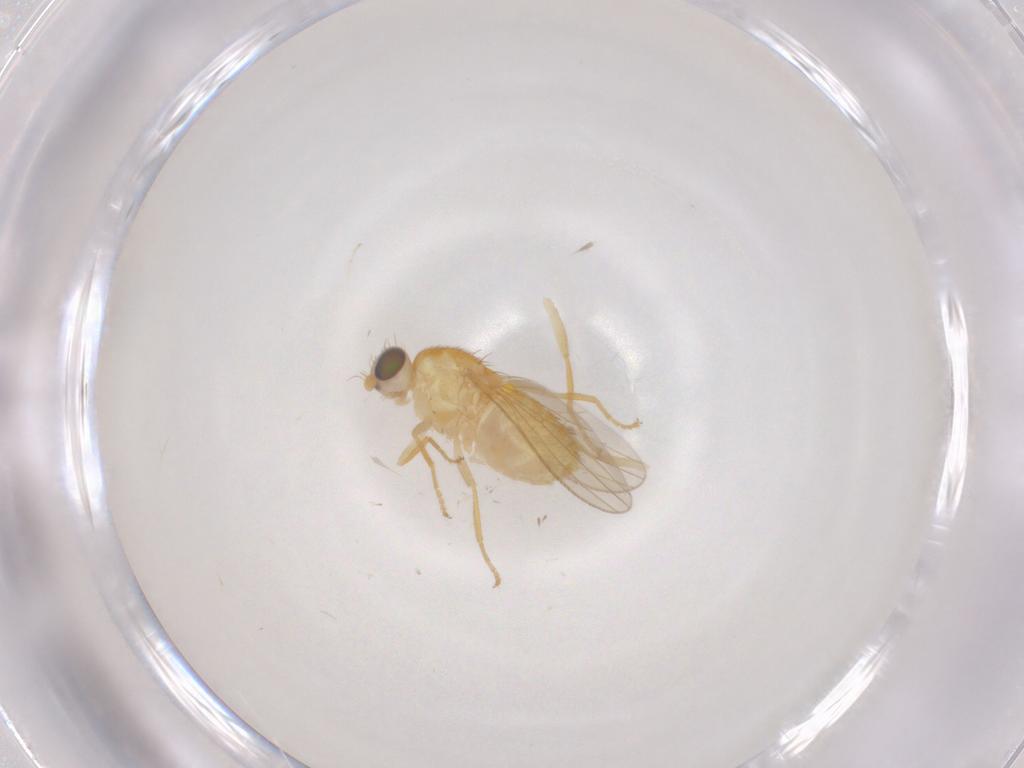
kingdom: Animalia
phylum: Arthropoda
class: Insecta
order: Diptera
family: Chyromyidae
